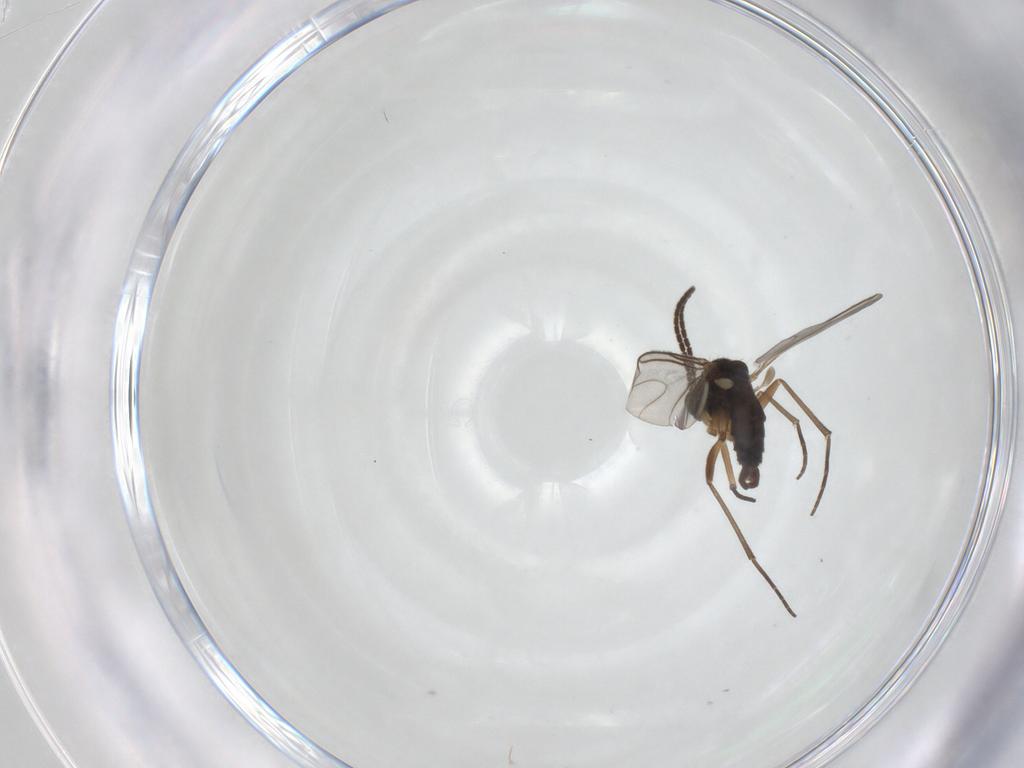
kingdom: Animalia
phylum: Arthropoda
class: Insecta
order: Diptera
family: Sciaridae
